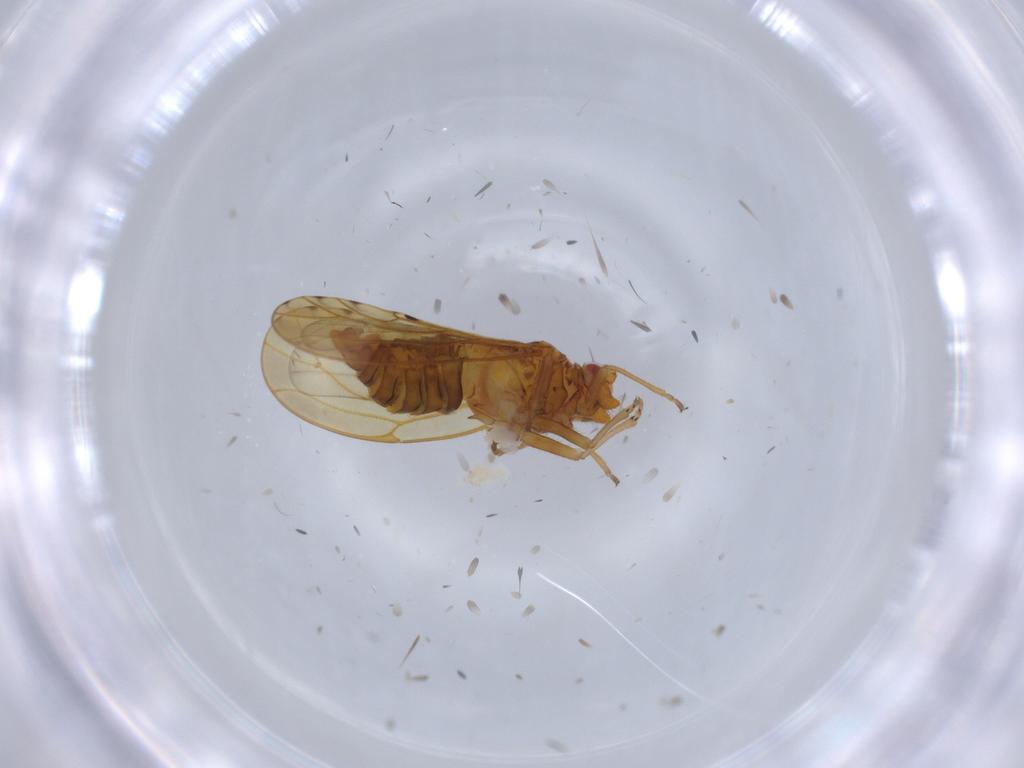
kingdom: Animalia
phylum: Arthropoda
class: Insecta
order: Hemiptera
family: Psylloidea_incertae_sedis
